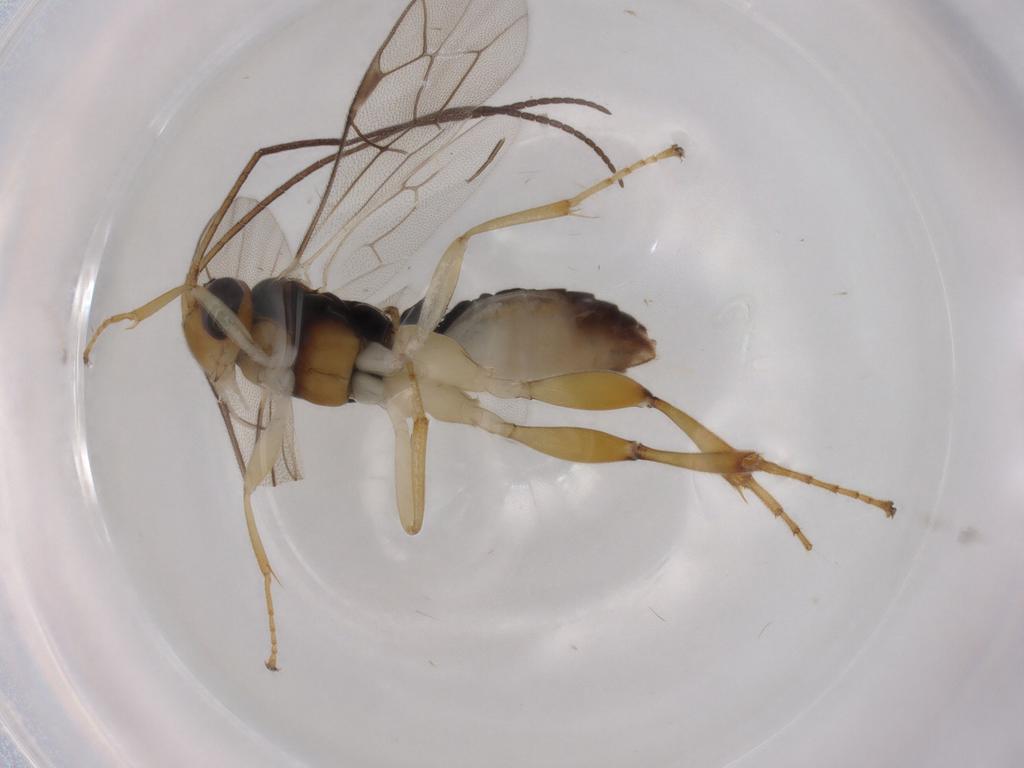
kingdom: Animalia
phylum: Arthropoda
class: Insecta
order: Hymenoptera
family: Ichneumonidae
